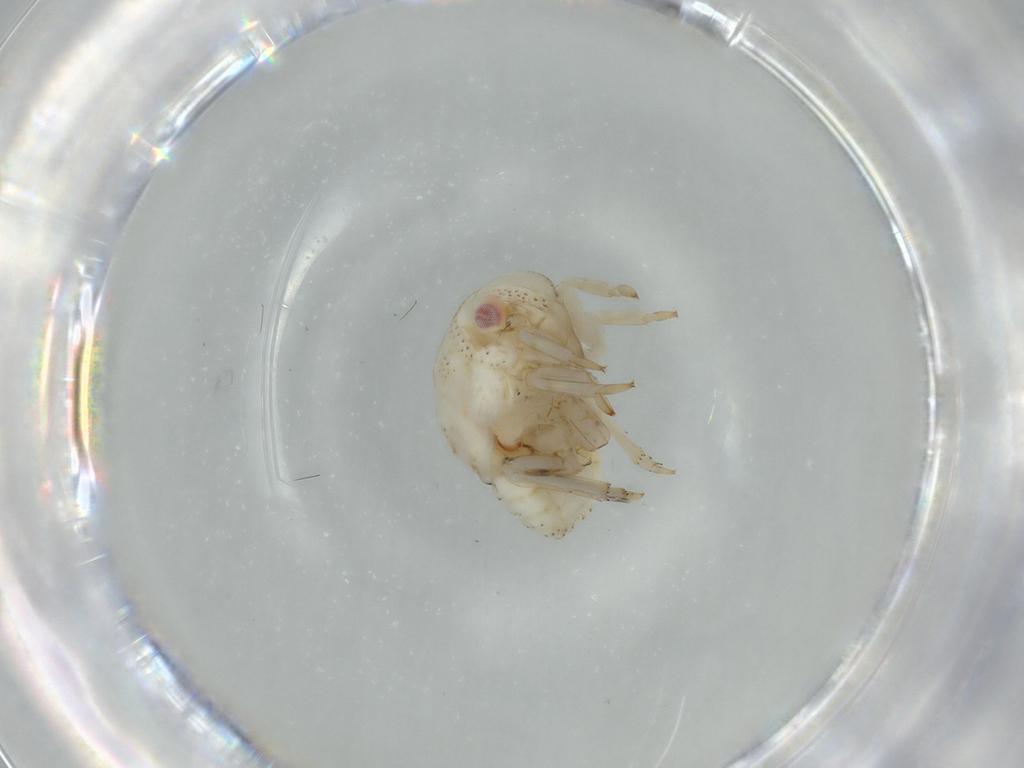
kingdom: Animalia
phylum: Arthropoda
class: Insecta
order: Hemiptera
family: Acanaloniidae
